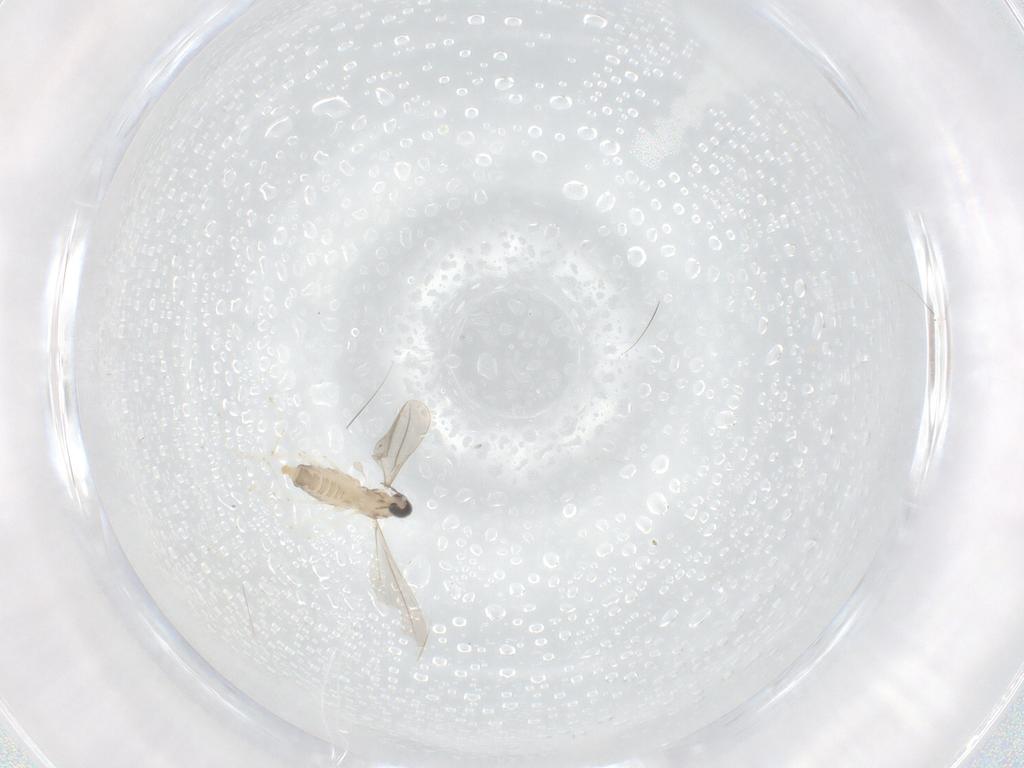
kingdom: Animalia
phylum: Arthropoda
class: Insecta
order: Diptera
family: Cecidomyiidae
